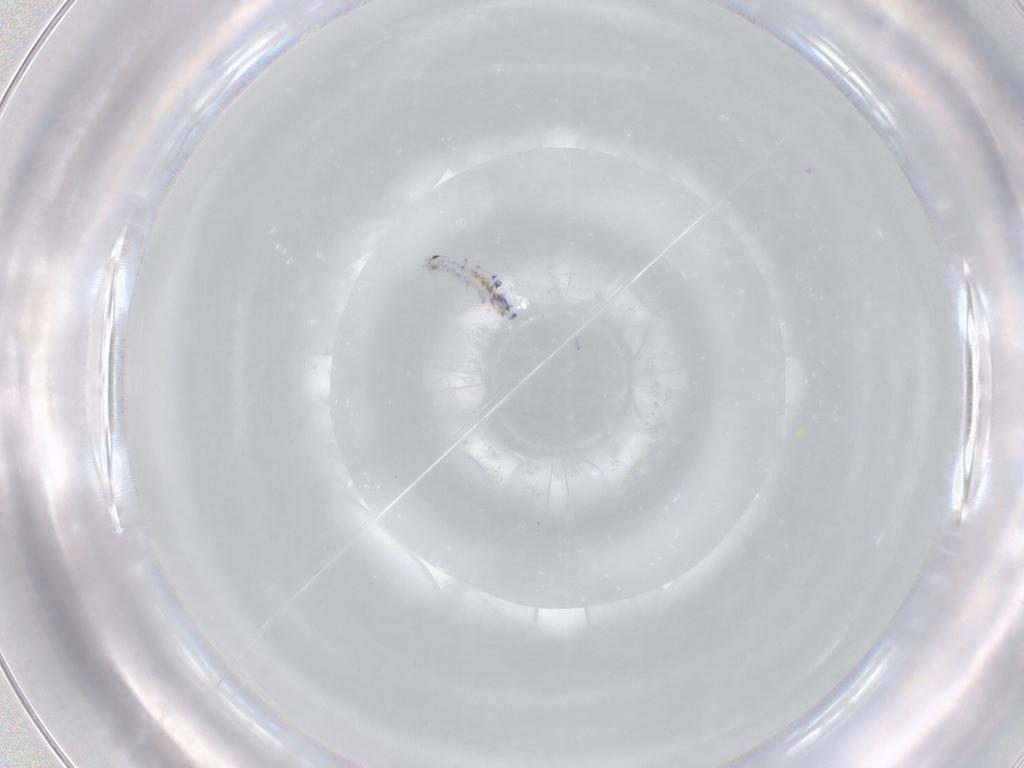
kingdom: Animalia
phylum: Arthropoda
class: Collembola
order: Entomobryomorpha
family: Entomobryidae
